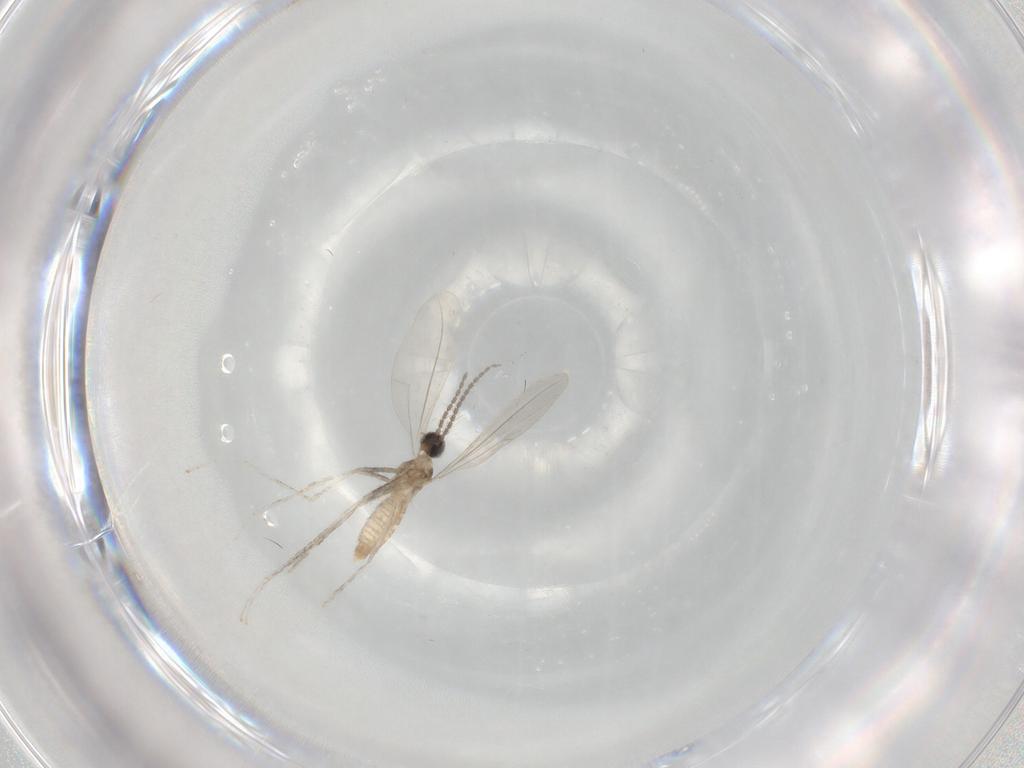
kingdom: Animalia
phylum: Arthropoda
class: Insecta
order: Diptera
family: Cecidomyiidae
